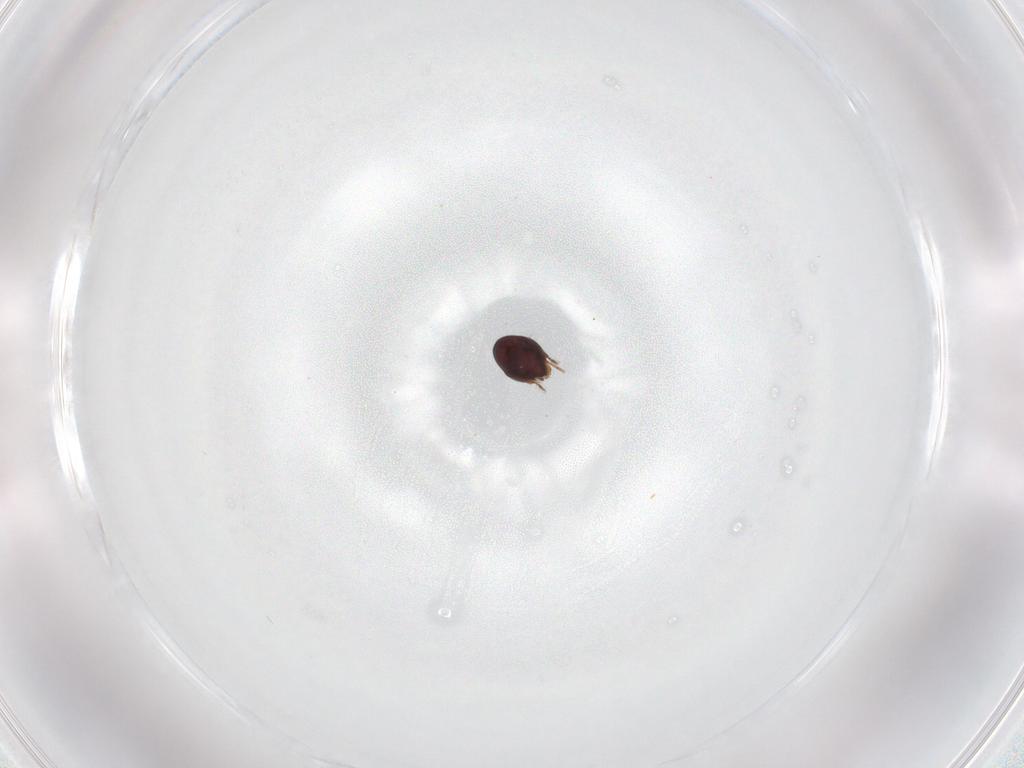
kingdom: Animalia
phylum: Arthropoda
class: Arachnida
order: Sarcoptiformes
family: Achipteriidae
